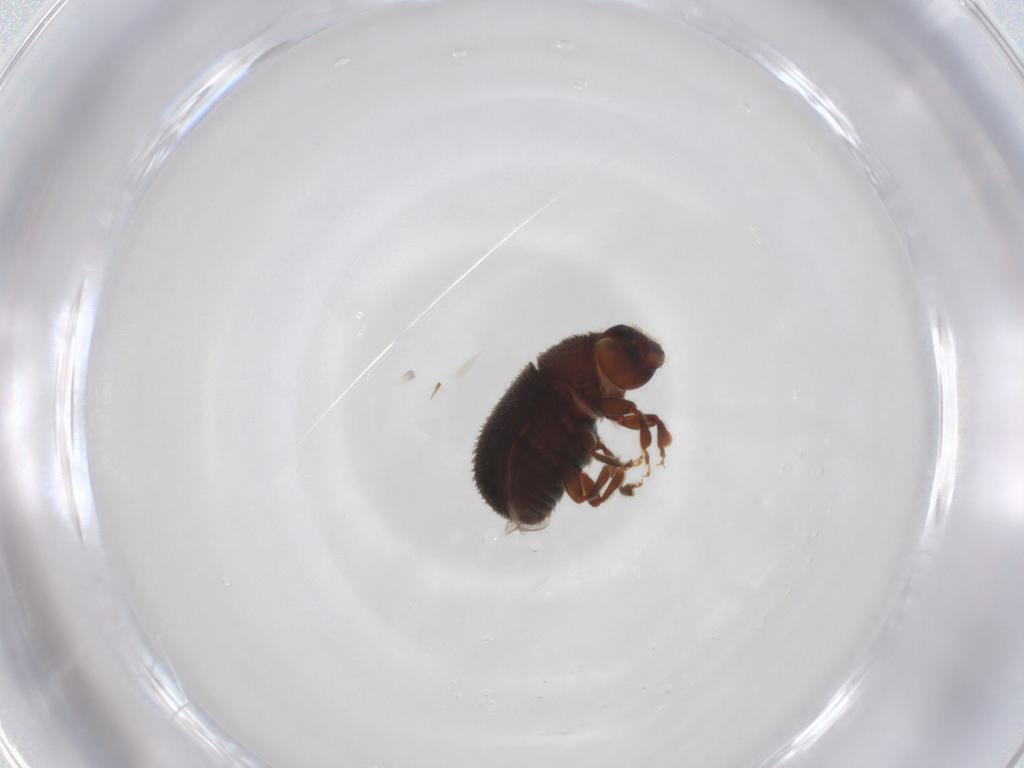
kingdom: Animalia
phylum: Arthropoda
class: Insecta
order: Coleoptera
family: Curculionidae
